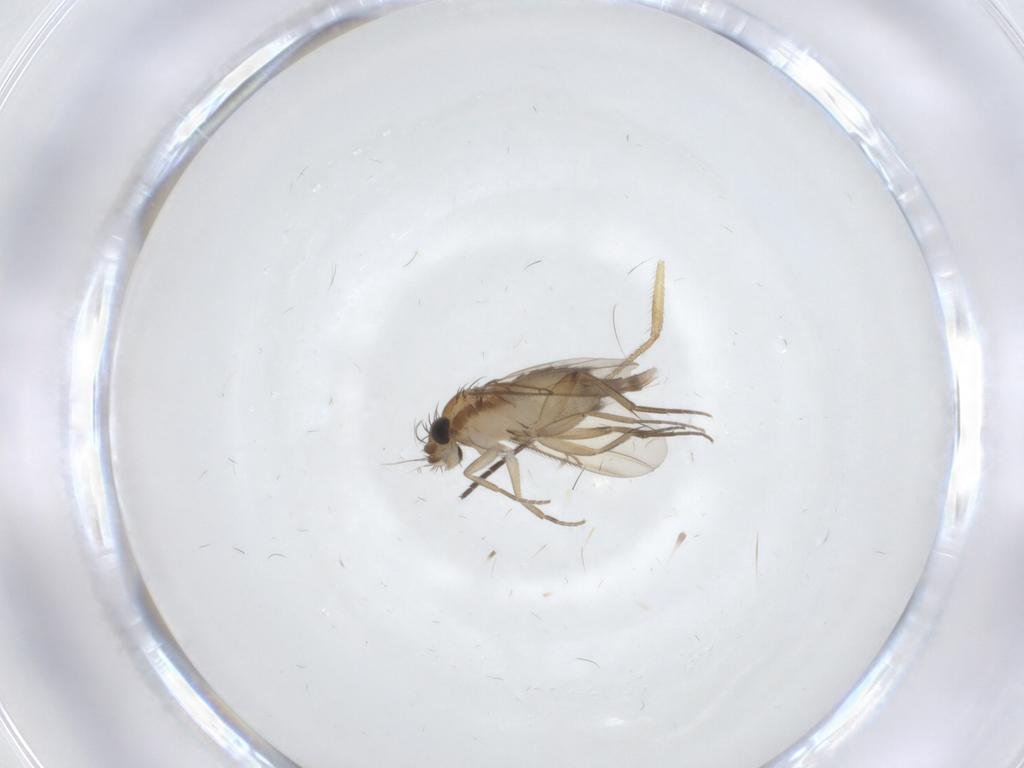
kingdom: Animalia
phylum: Arthropoda
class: Insecta
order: Diptera
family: Phoridae
